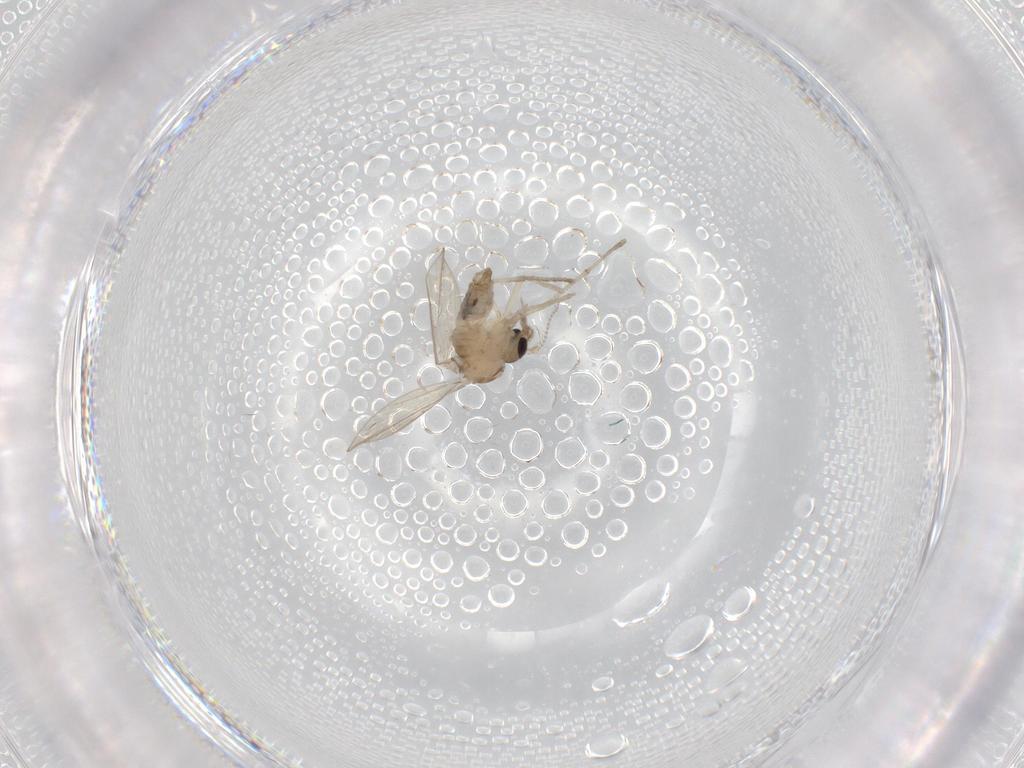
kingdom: Animalia
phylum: Arthropoda
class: Insecta
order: Diptera
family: Psychodidae
